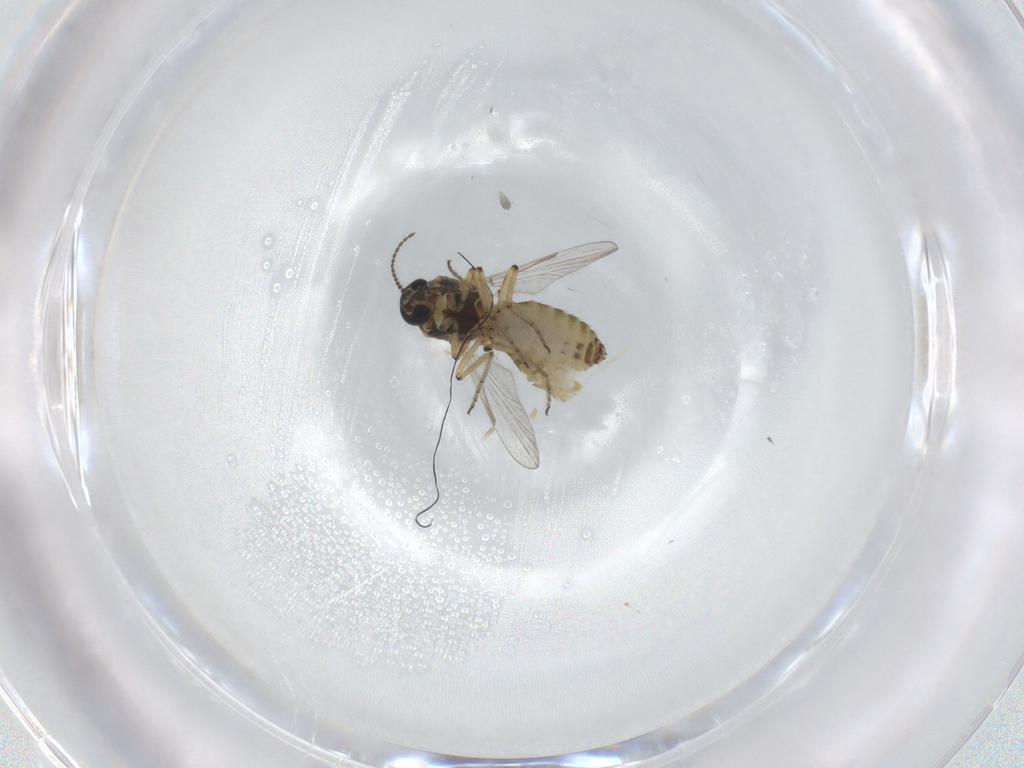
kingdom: Animalia
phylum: Arthropoda
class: Insecta
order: Diptera
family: Ceratopogonidae
